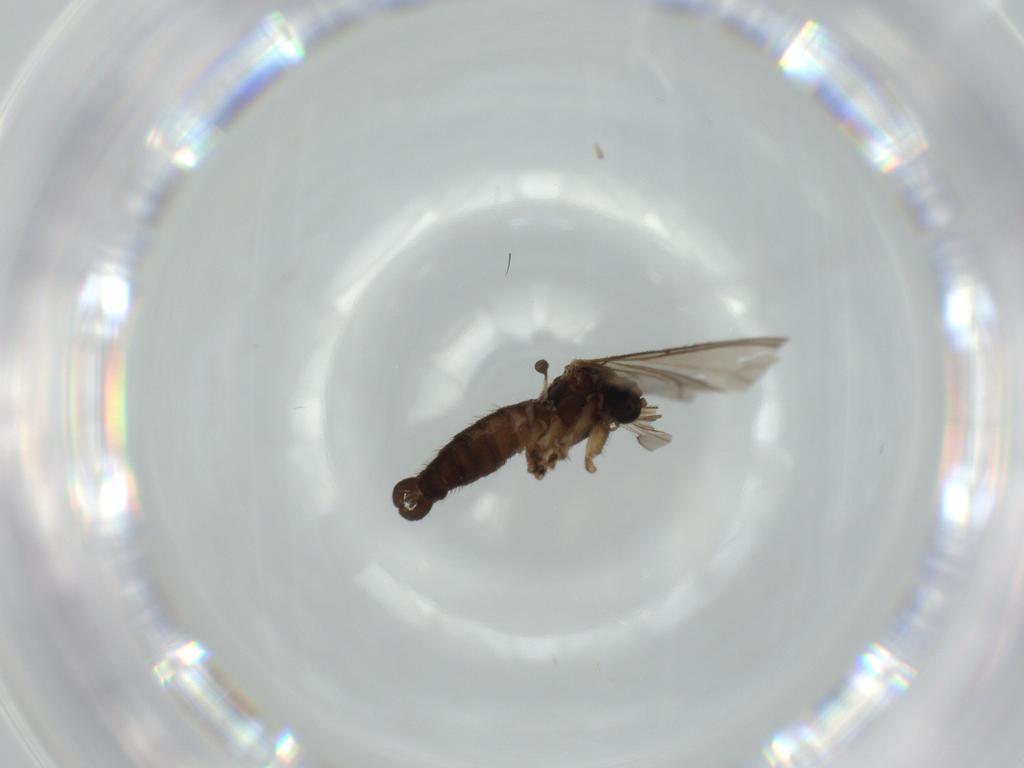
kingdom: Animalia
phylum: Arthropoda
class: Insecta
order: Diptera
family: Sciaridae
